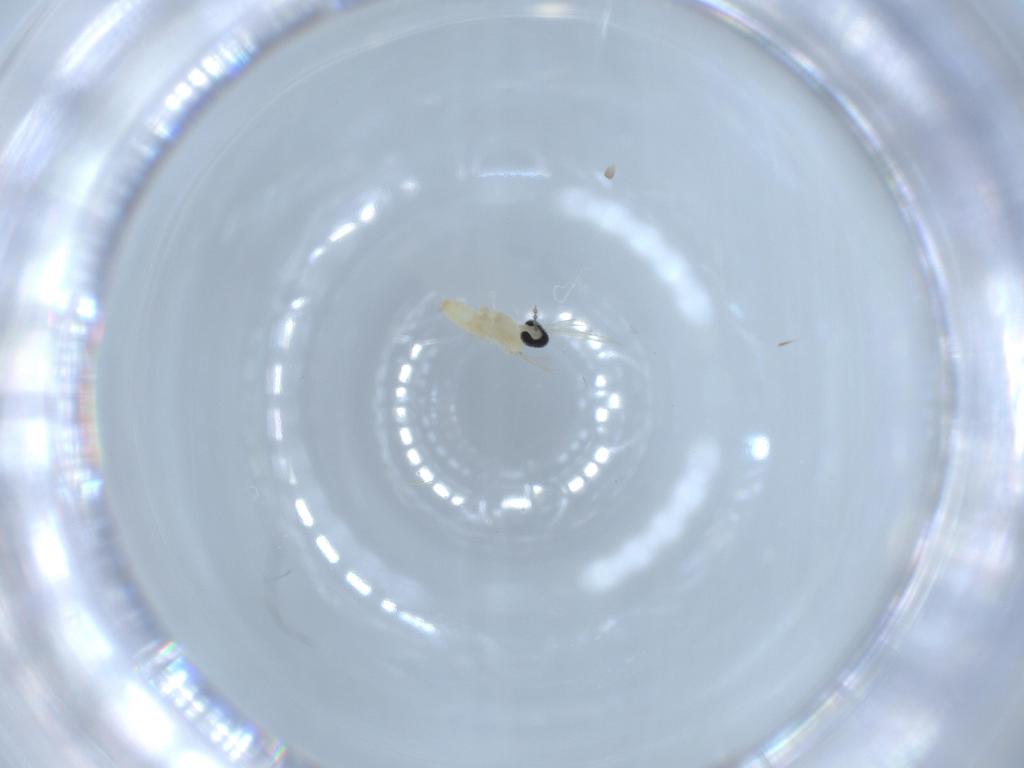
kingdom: Animalia
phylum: Arthropoda
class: Insecta
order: Diptera
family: Cecidomyiidae
